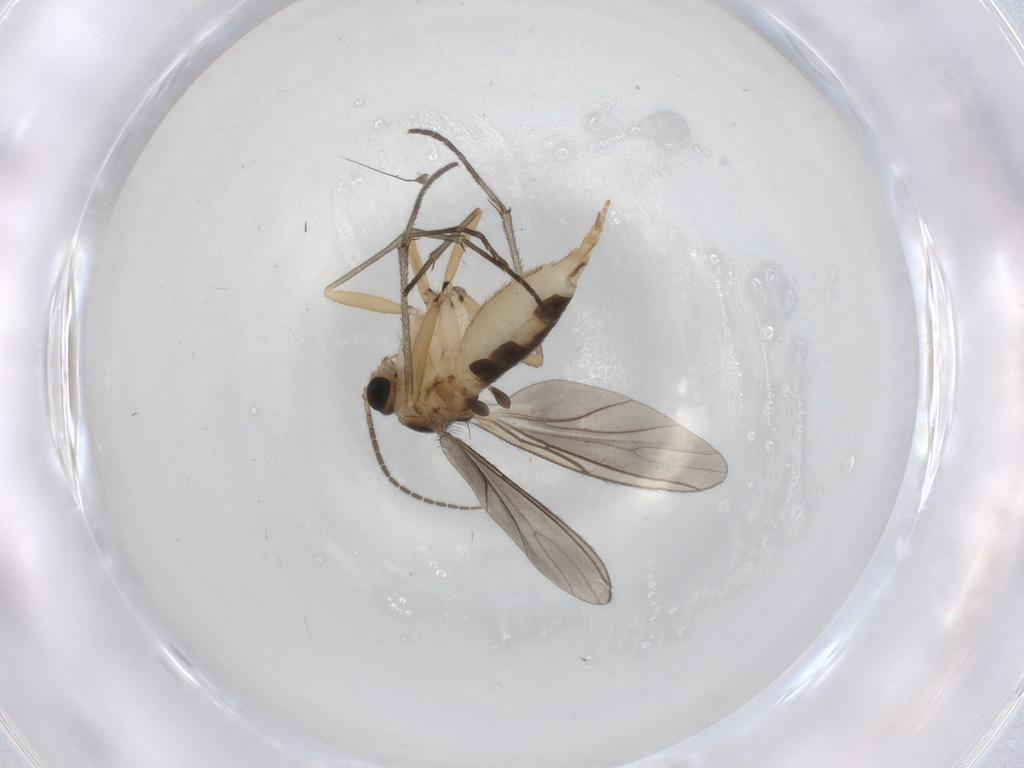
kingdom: Animalia
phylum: Arthropoda
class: Insecta
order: Diptera
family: Sciaridae
